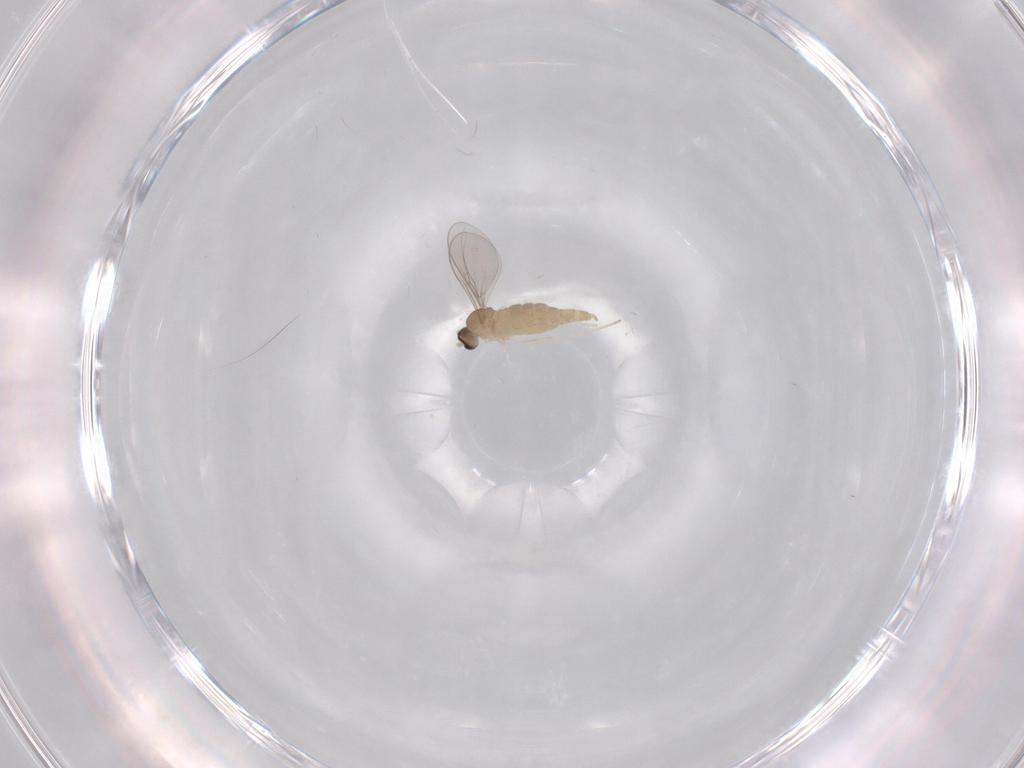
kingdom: Animalia
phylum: Arthropoda
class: Insecta
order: Diptera
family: Cecidomyiidae
